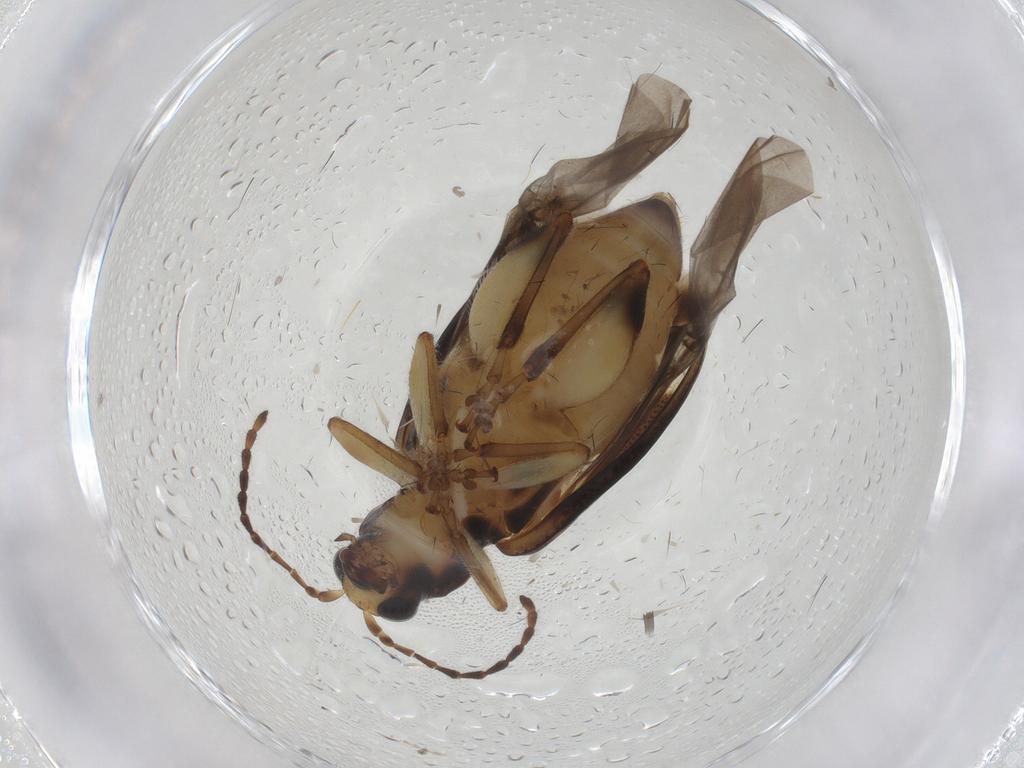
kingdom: Animalia
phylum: Arthropoda
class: Insecta
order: Coleoptera
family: Chrysomelidae
